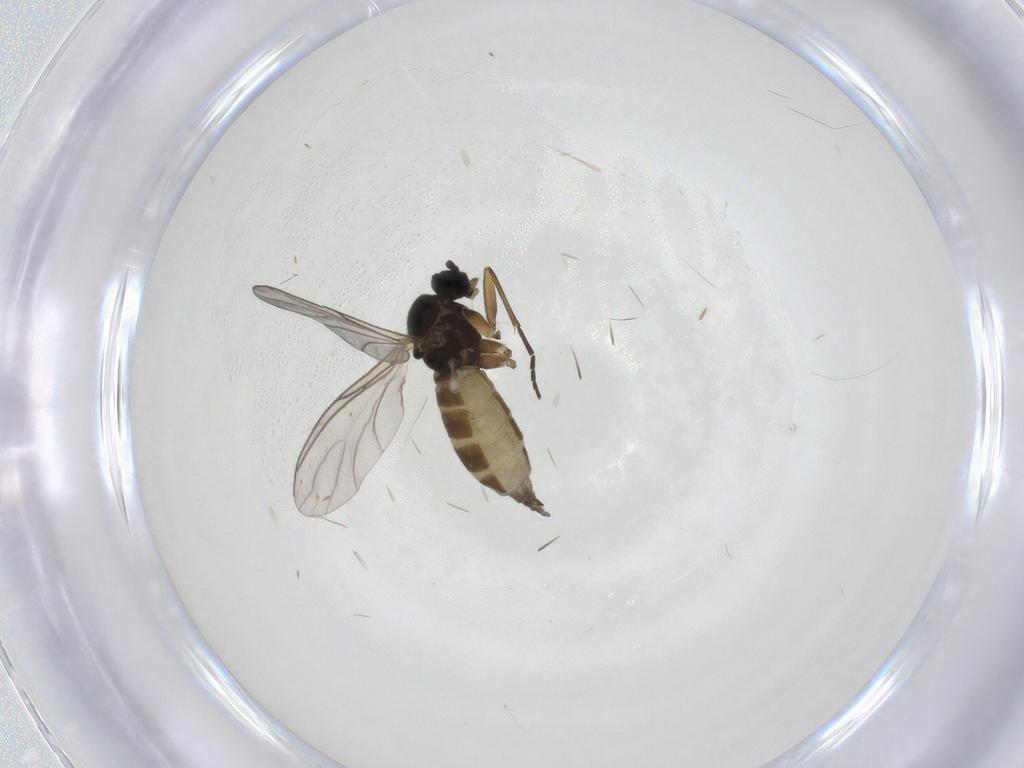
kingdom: Animalia
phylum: Arthropoda
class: Insecta
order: Diptera
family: Sciaridae
